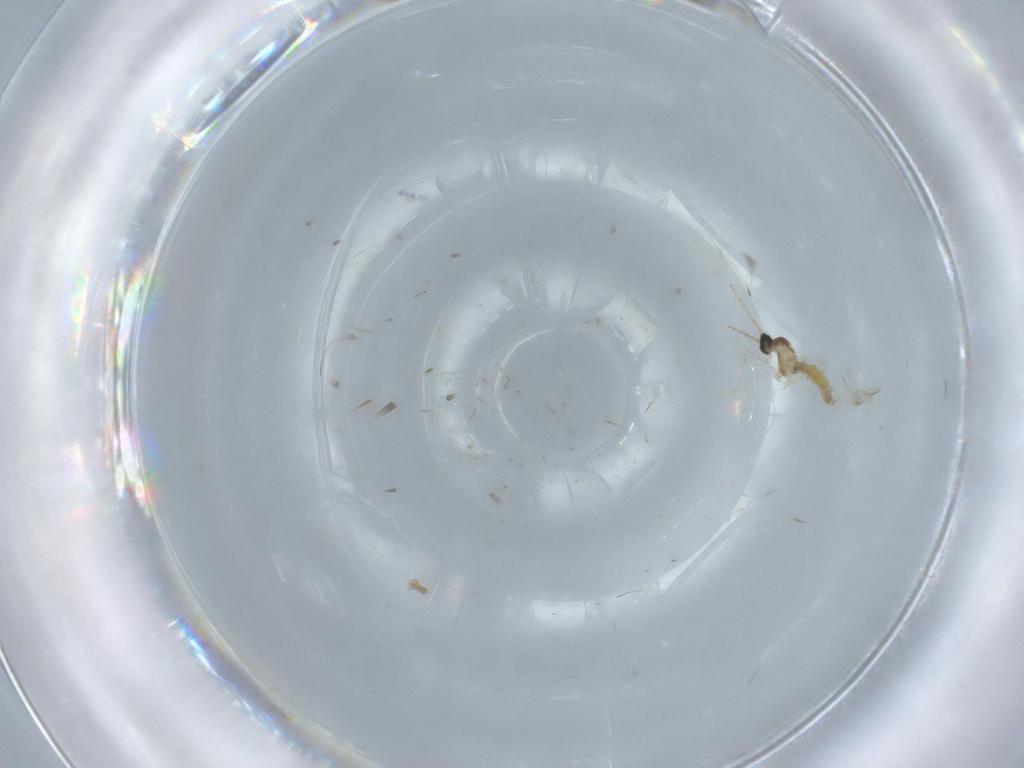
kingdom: Animalia
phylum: Arthropoda
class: Insecta
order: Diptera
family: Cecidomyiidae
